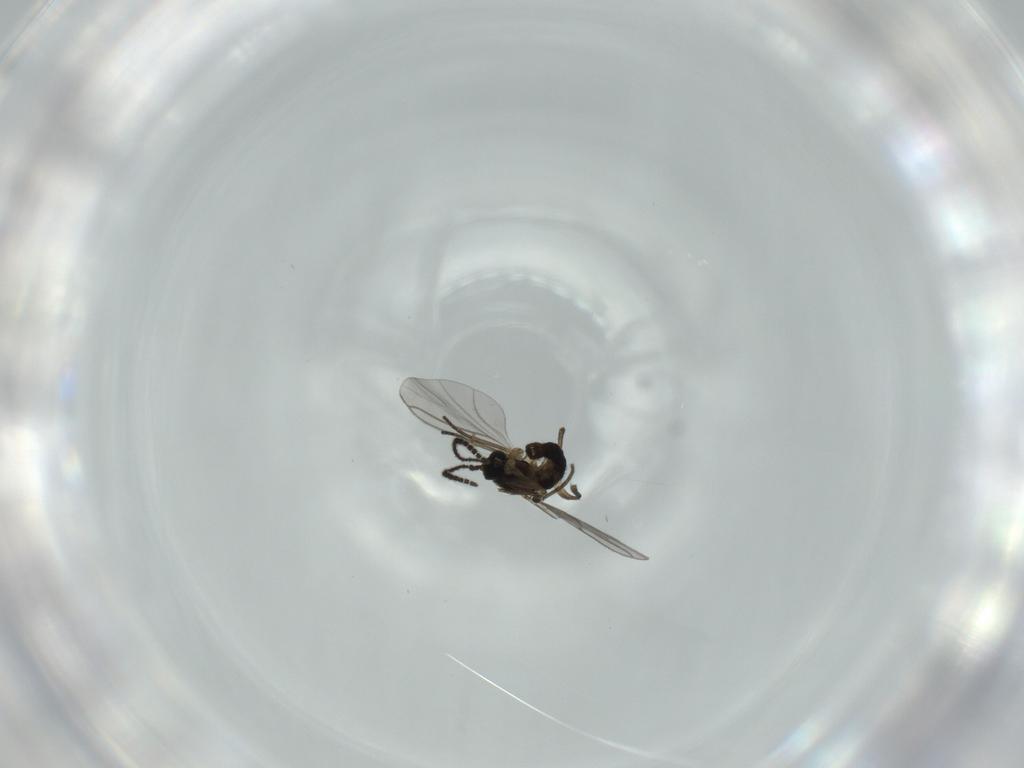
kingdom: Animalia
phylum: Arthropoda
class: Insecta
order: Diptera
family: Sciaridae
